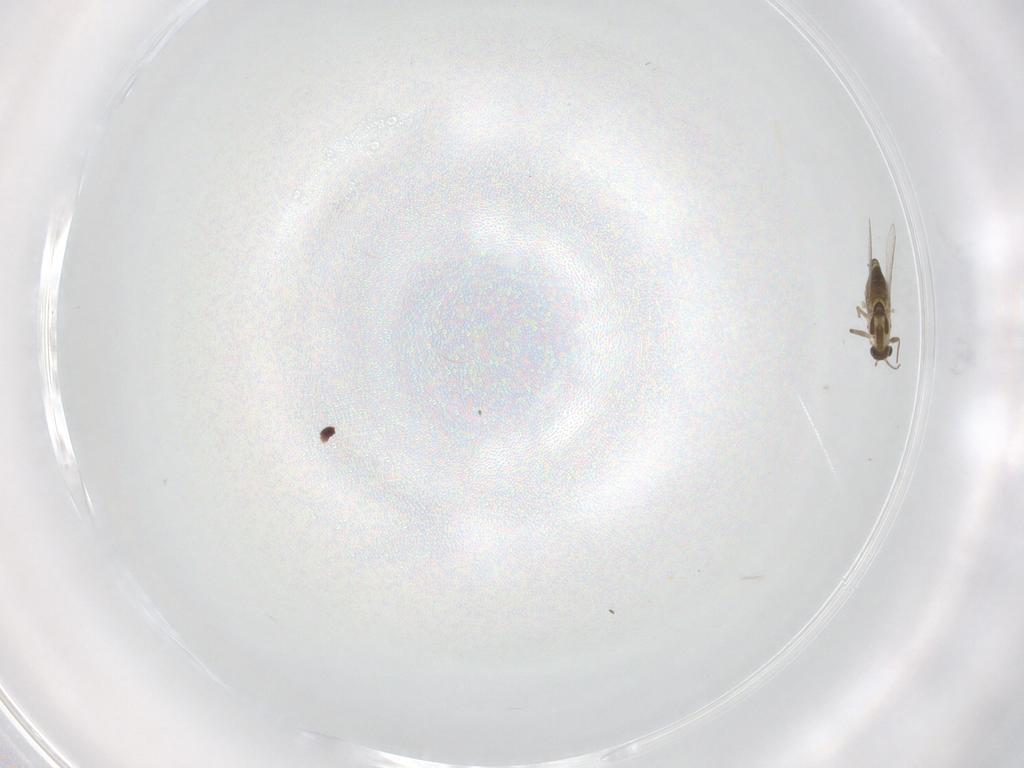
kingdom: Animalia
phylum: Arthropoda
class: Insecta
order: Diptera
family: Chironomidae
